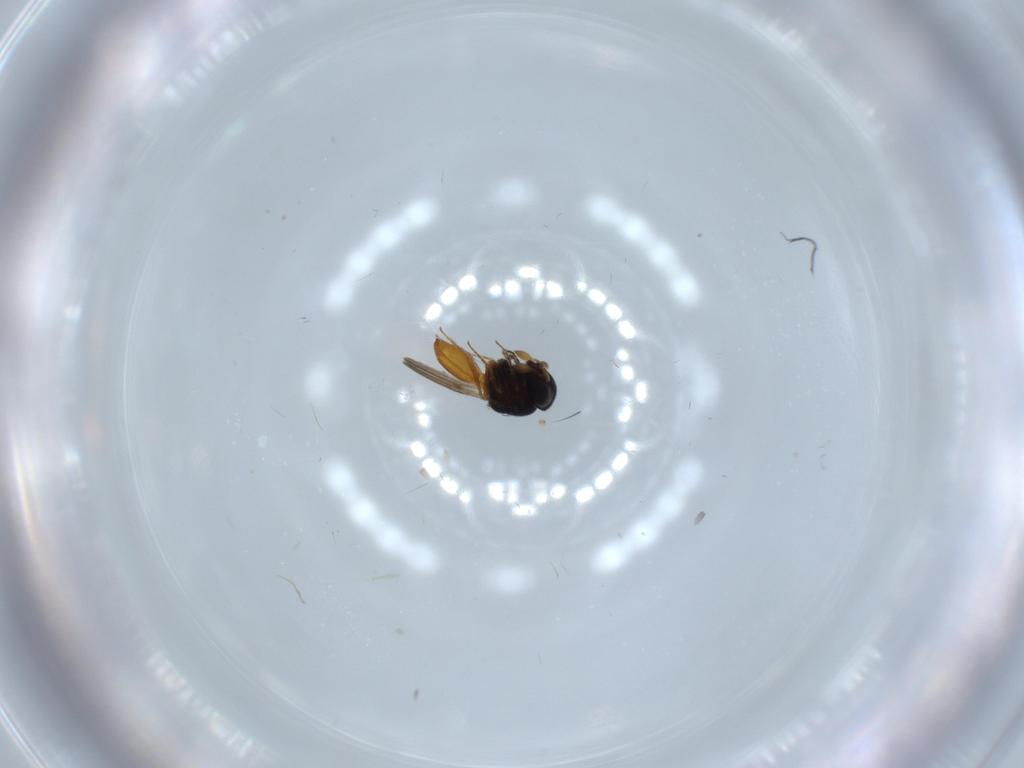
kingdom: Animalia
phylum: Arthropoda
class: Insecta
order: Hymenoptera
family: Scelionidae
